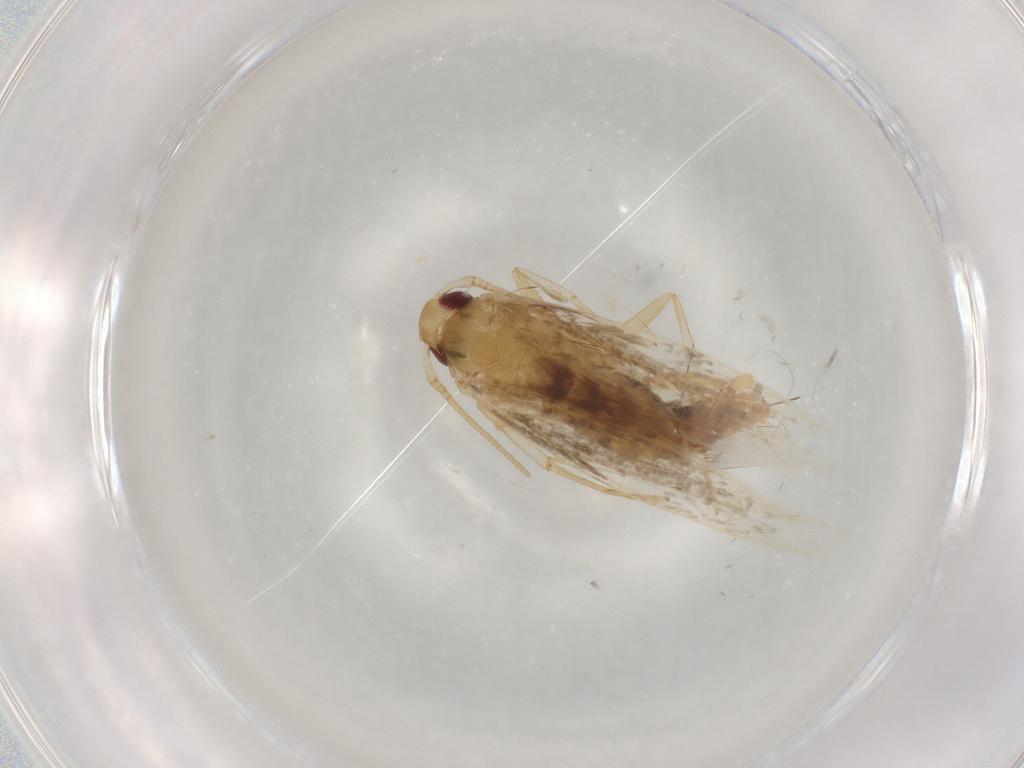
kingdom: Animalia
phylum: Arthropoda
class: Insecta
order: Lepidoptera
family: Cosmopterigidae
